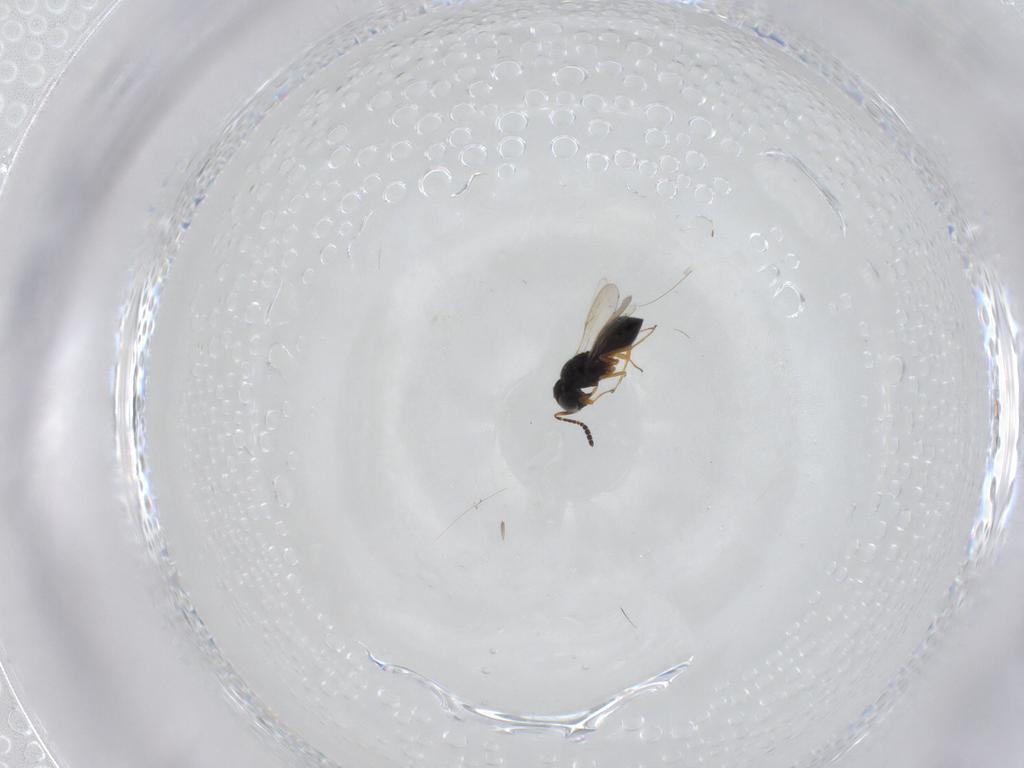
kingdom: Animalia
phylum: Arthropoda
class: Insecta
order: Hymenoptera
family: Scelionidae
